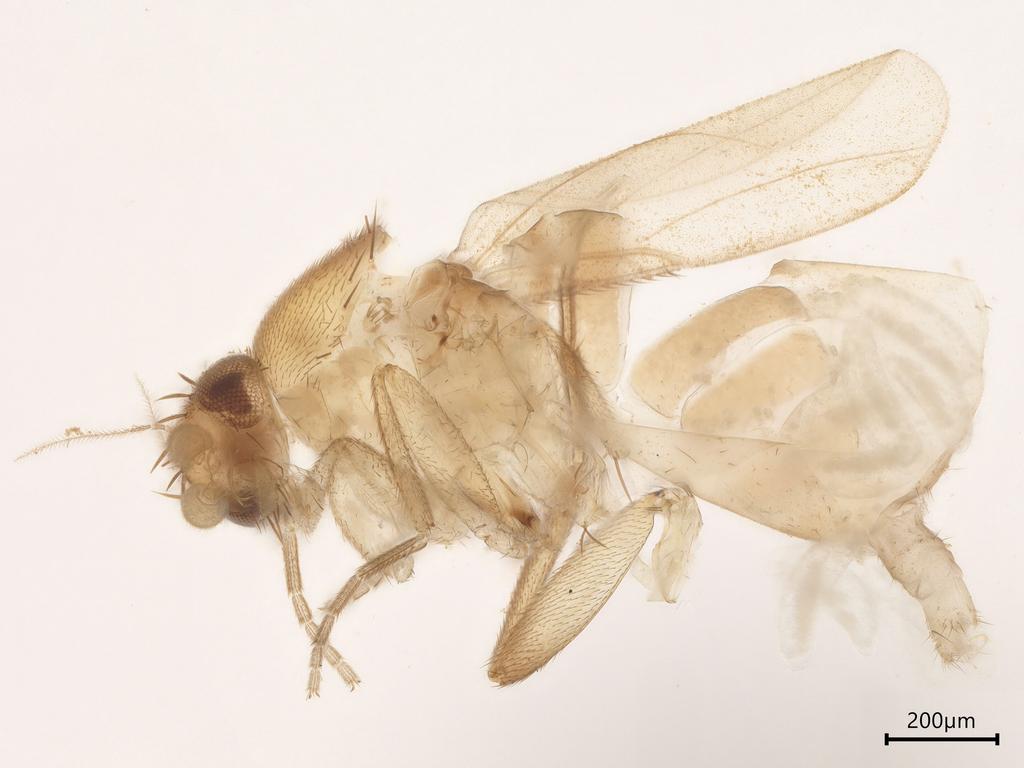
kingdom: Animalia
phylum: Arthropoda
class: Insecta
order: Diptera
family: Phoridae
